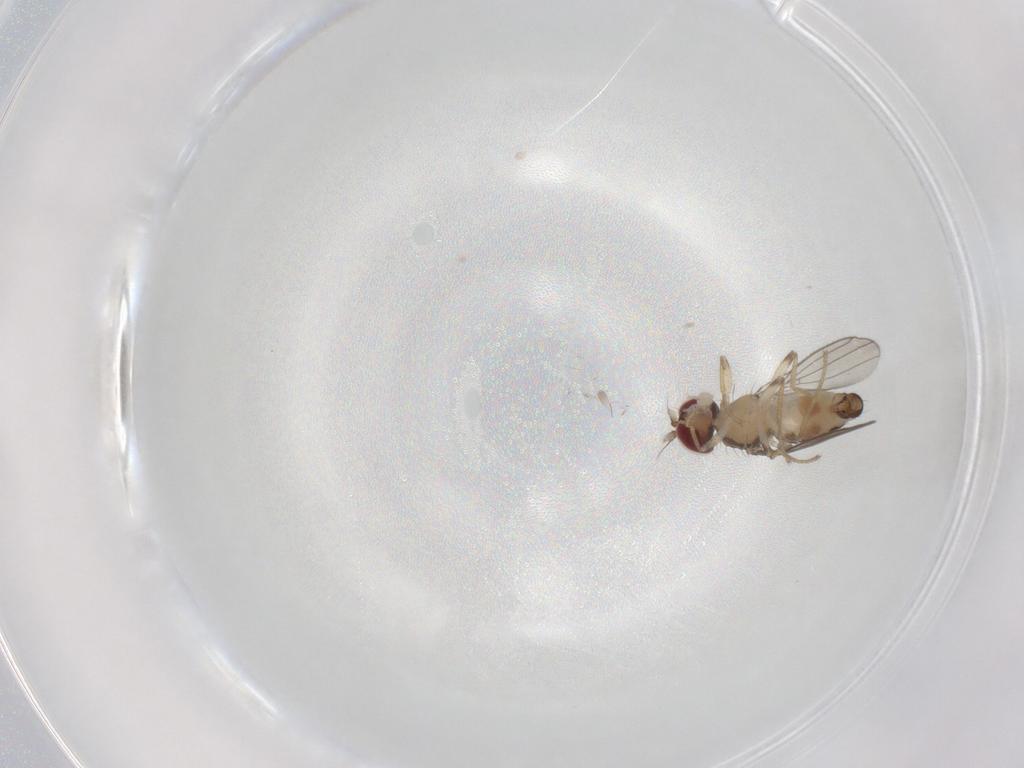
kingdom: Animalia
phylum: Arthropoda
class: Insecta
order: Diptera
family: Anthomyzidae
